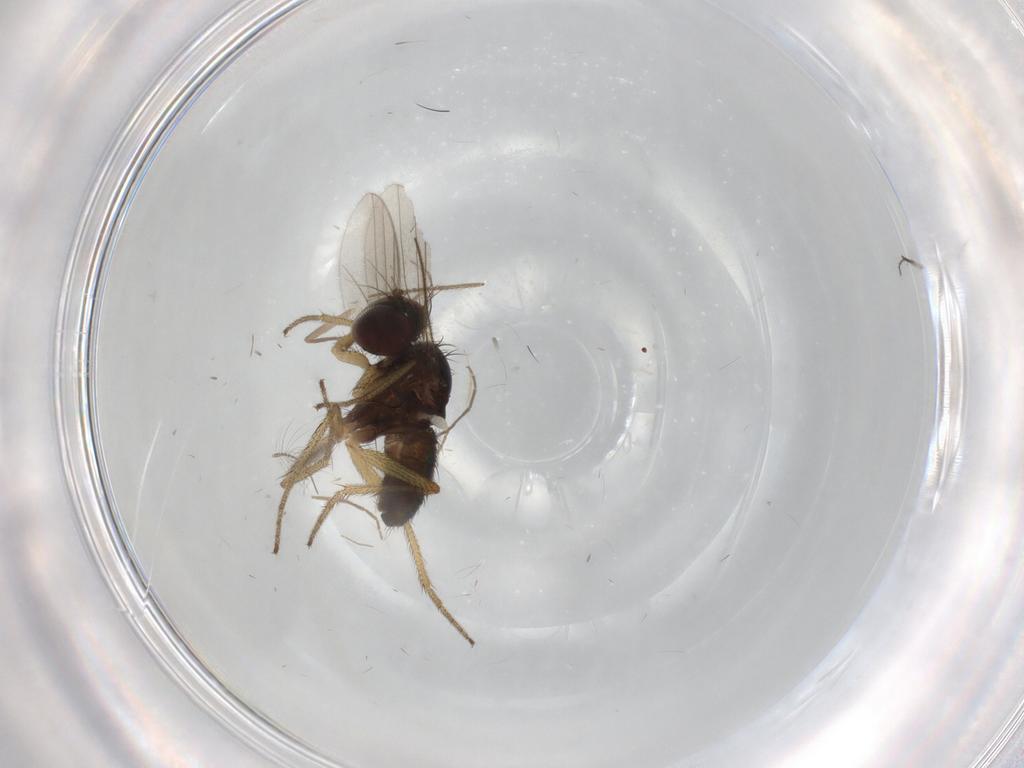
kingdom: Animalia
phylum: Arthropoda
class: Insecta
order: Diptera
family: Chironomidae
